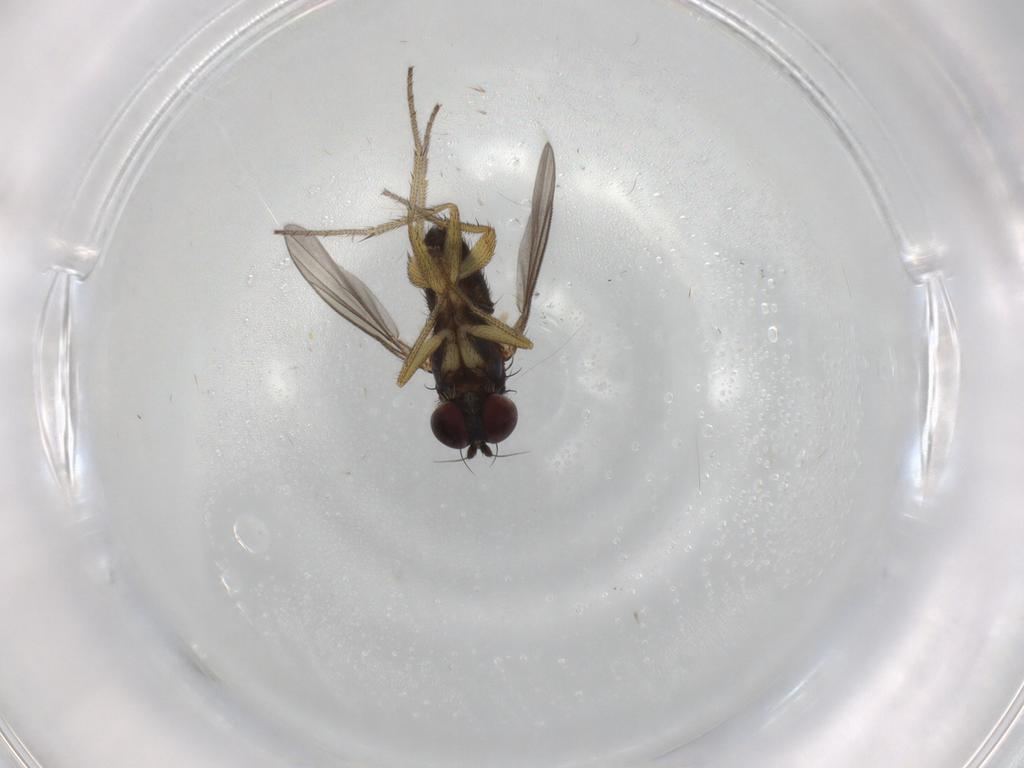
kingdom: Animalia
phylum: Arthropoda
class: Insecta
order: Diptera
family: Dolichopodidae
